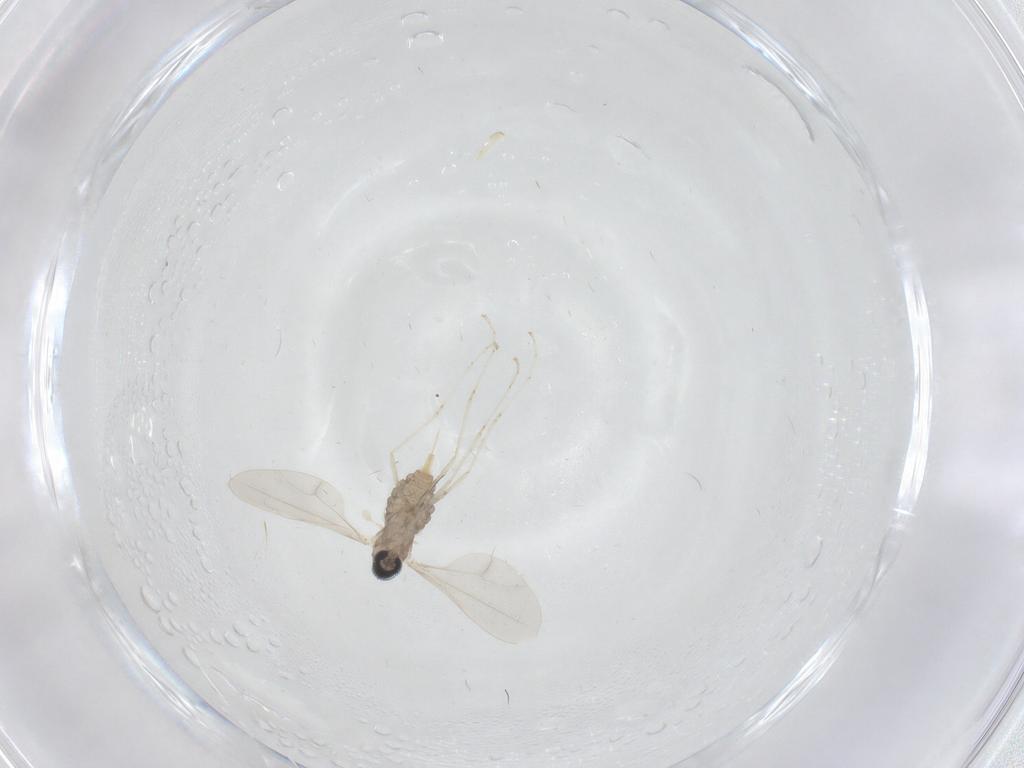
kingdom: Animalia
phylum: Arthropoda
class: Insecta
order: Diptera
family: Cecidomyiidae
